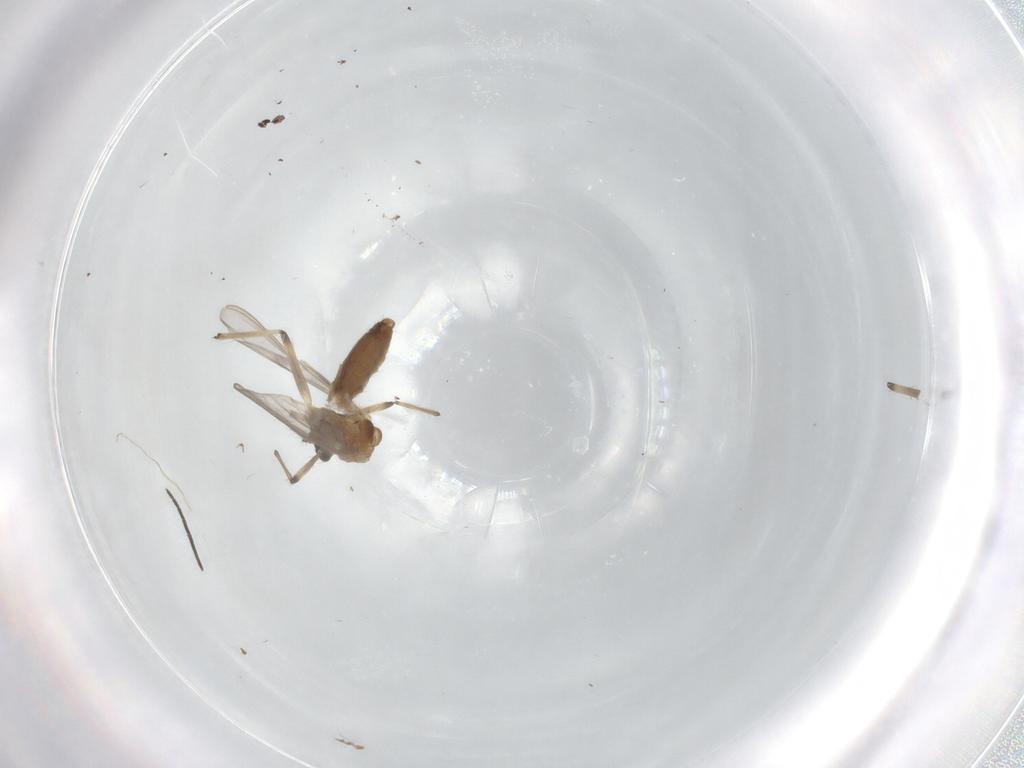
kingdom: Animalia
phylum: Arthropoda
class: Insecta
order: Diptera
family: Chironomidae
